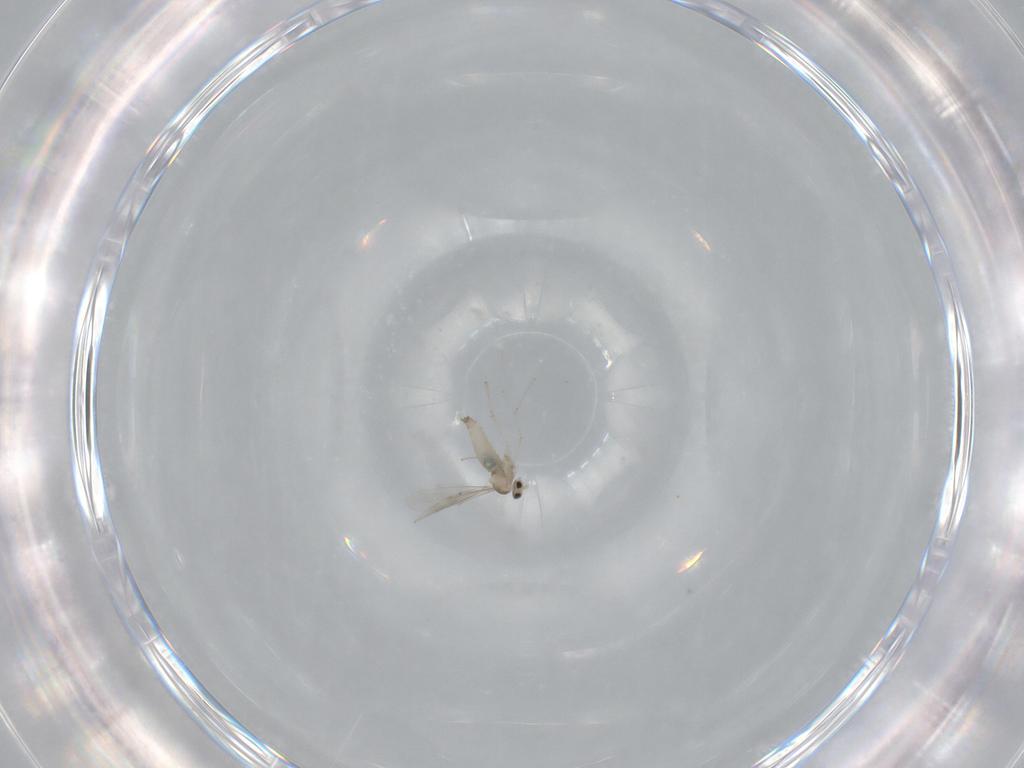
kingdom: Animalia
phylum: Arthropoda
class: Insecta
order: Diptera
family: Cecidomyiidae
